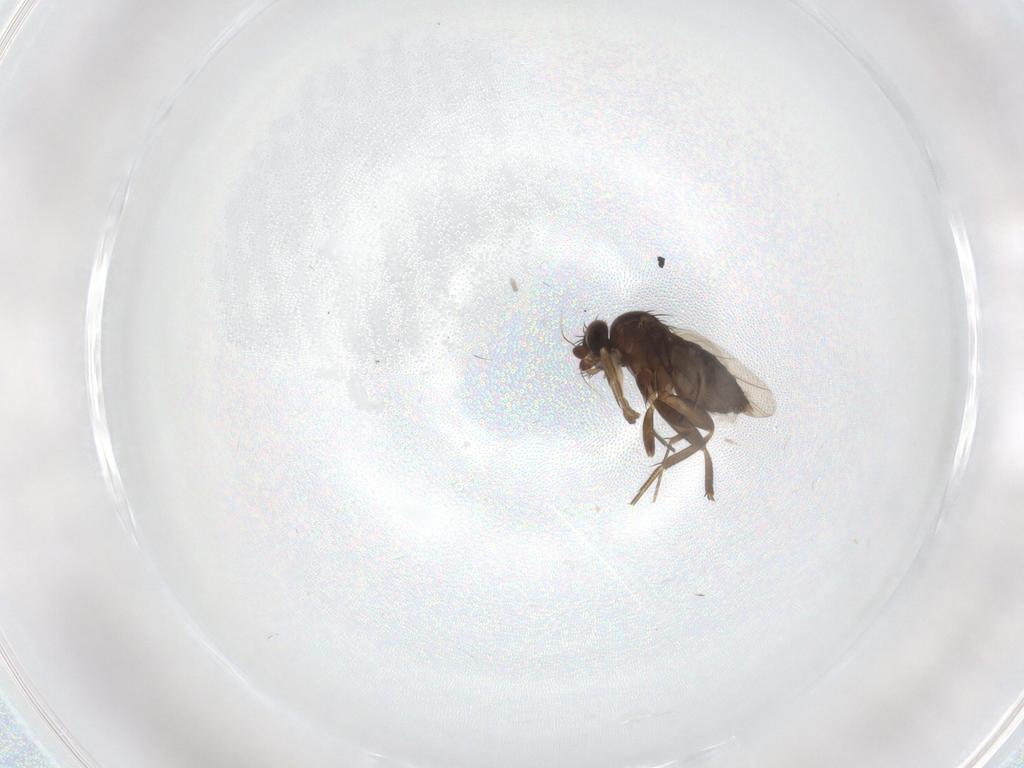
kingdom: Animalia
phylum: Arthropoda
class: Insecta
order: Diptera
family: Phoridae
